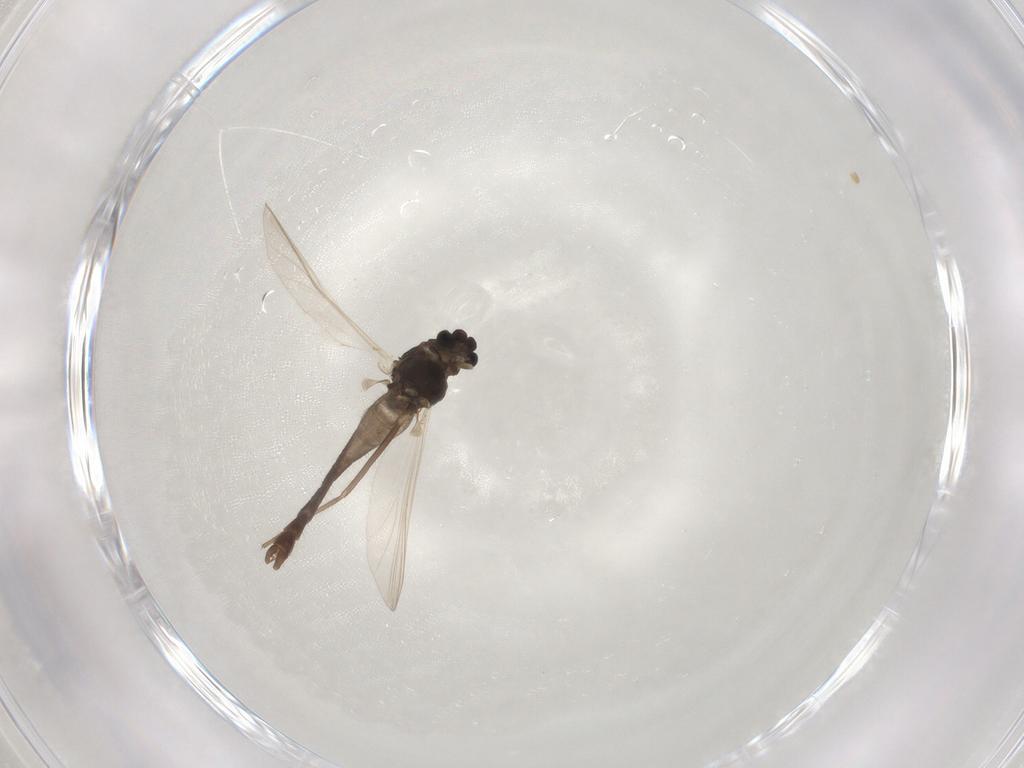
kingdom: Animalia
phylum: Arthropoda
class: Insecta
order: Diptera
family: Chironomidae
